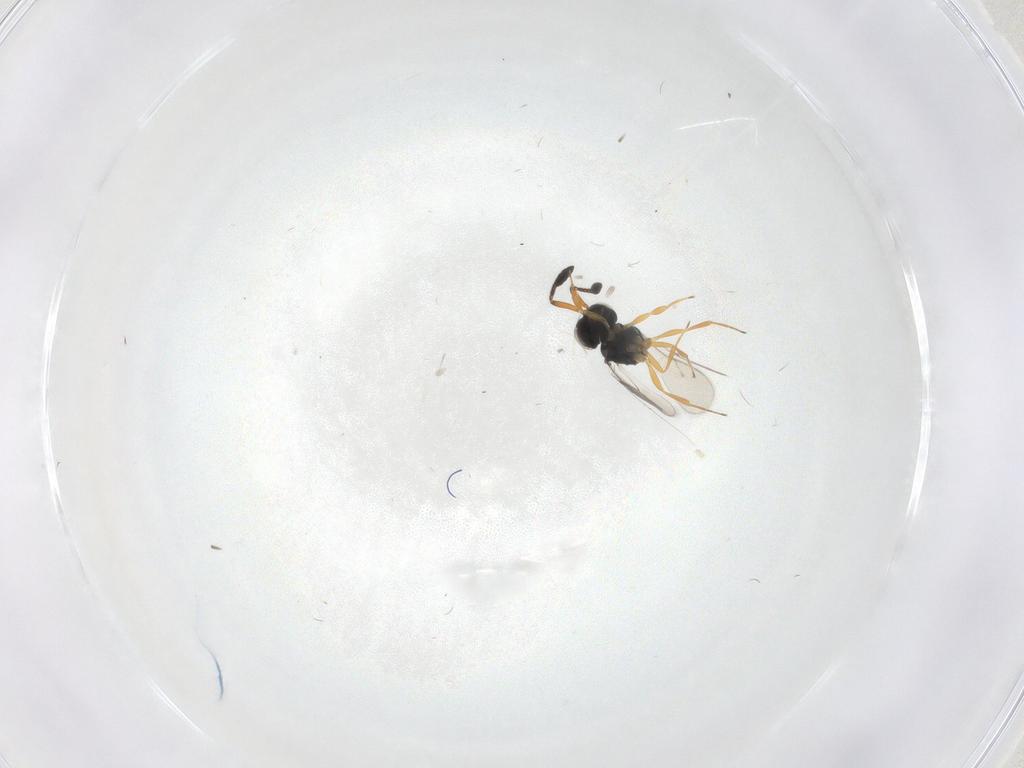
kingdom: Animalia
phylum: Arthropoda
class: Insecta
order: Hymenoptera
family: Scelionidae
